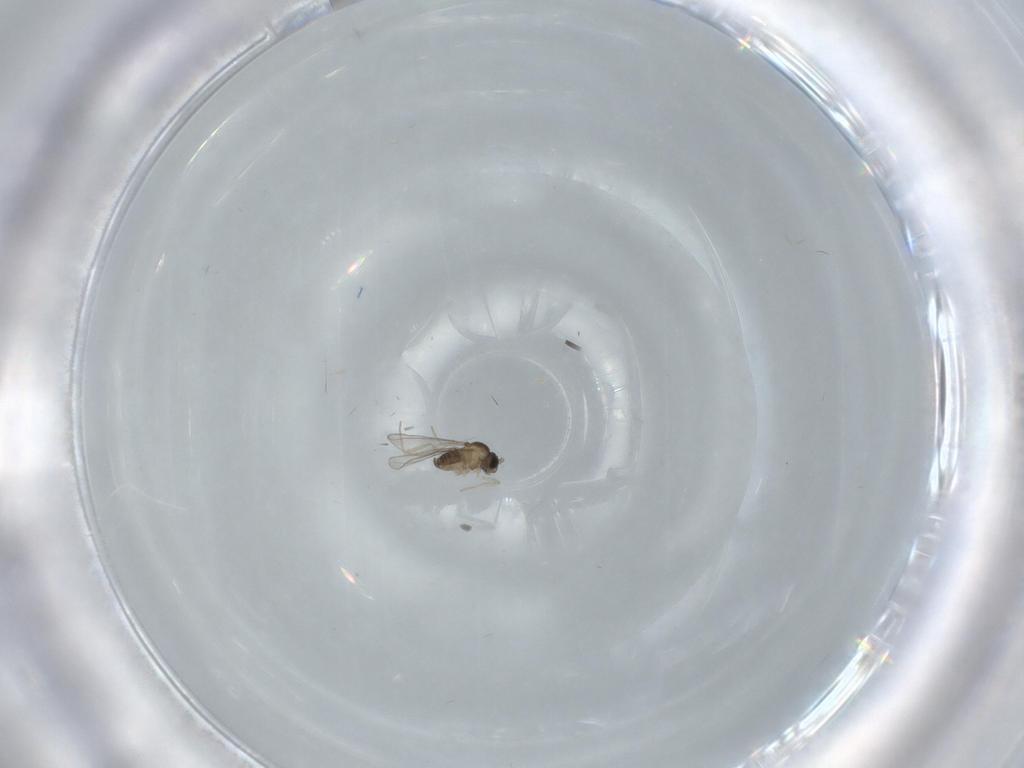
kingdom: Animalia
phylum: Arthropoda
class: Insecta
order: Diptera
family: Cecidomyiidae
